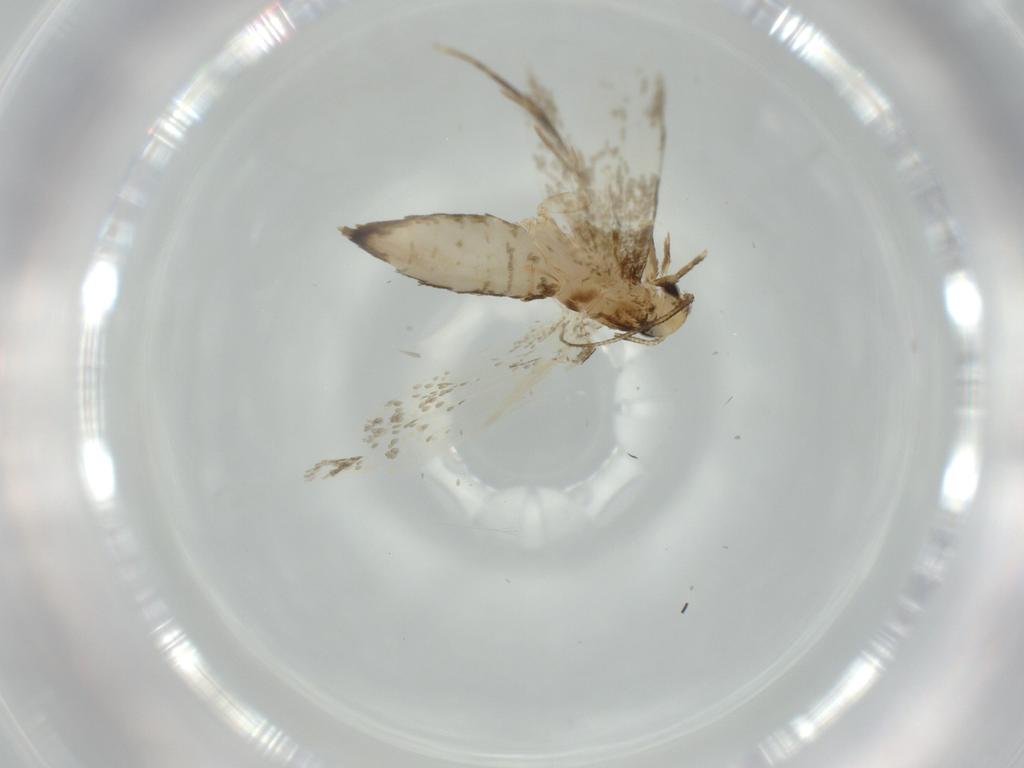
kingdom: Animalia
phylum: Arthropoda
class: Insecta
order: Lepidoptera
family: Tineidae
